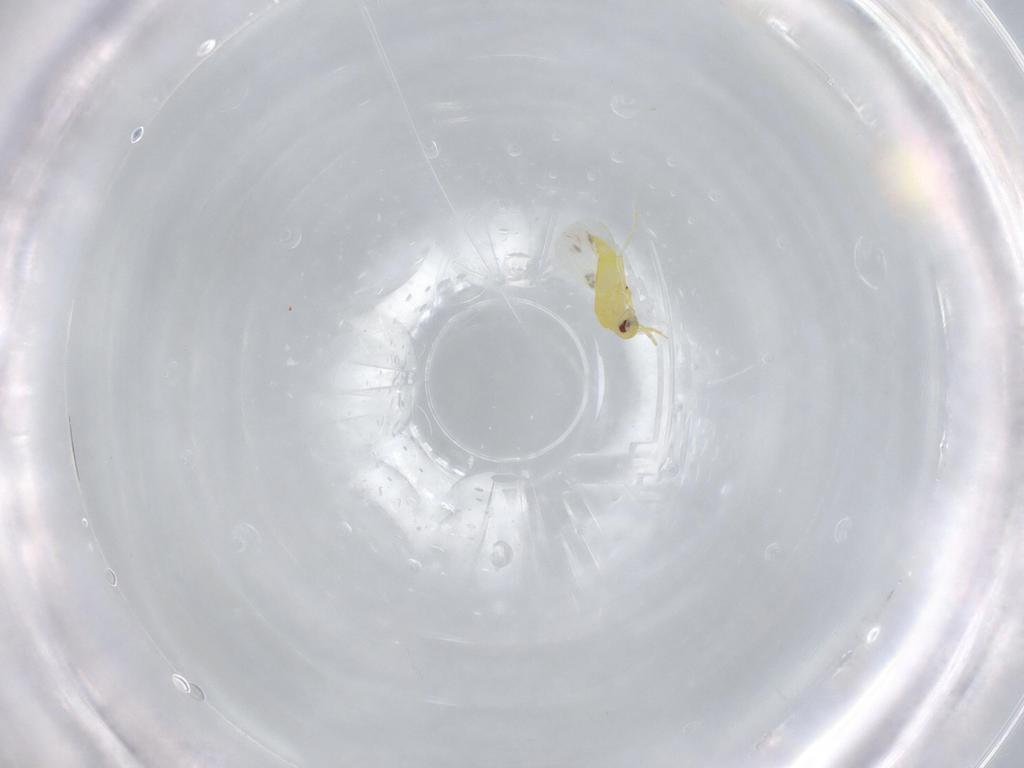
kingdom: Animalia
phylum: Arthropoda
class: Insecta
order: Hemiptera
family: Aleyrodidae
